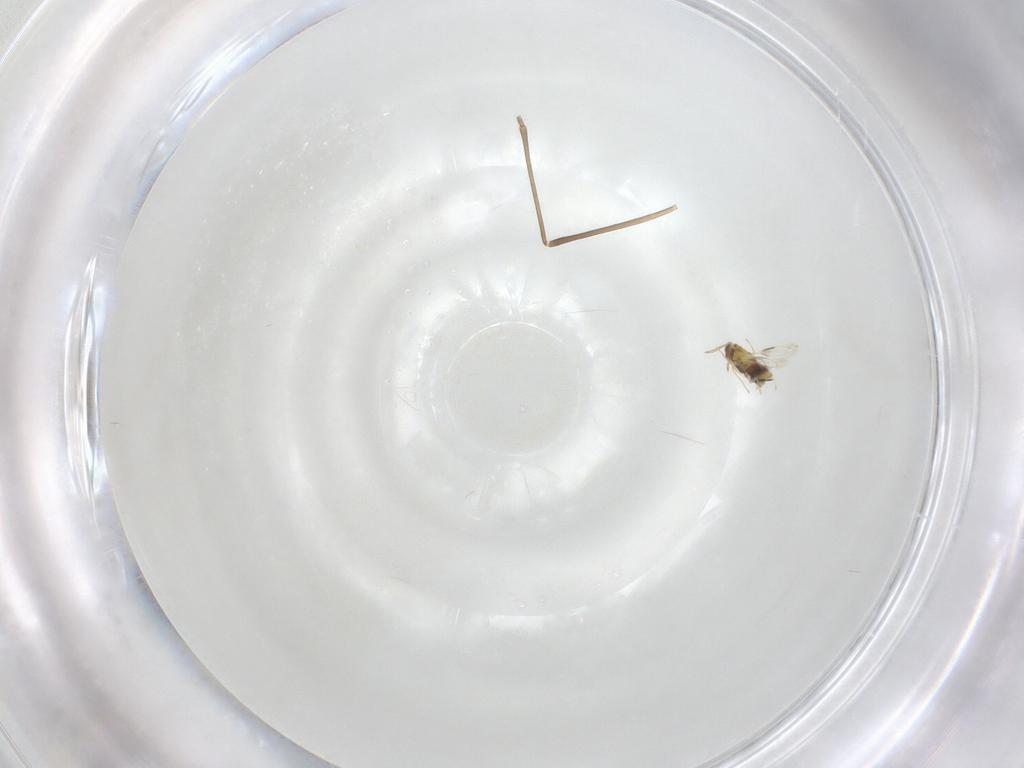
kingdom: Animalia
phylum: Arthropoda
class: Insecta
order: Hymenoptera
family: Aphelinidae
